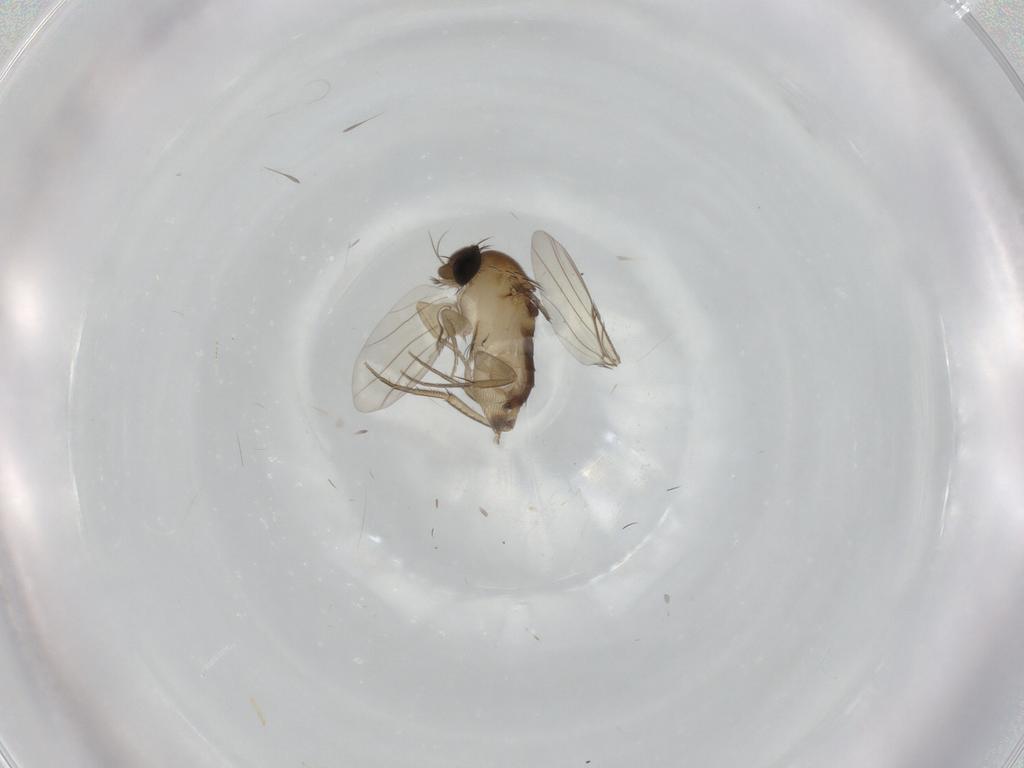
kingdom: Animalia
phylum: Arthropoda
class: Insecta
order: Diptera
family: Phoridae
